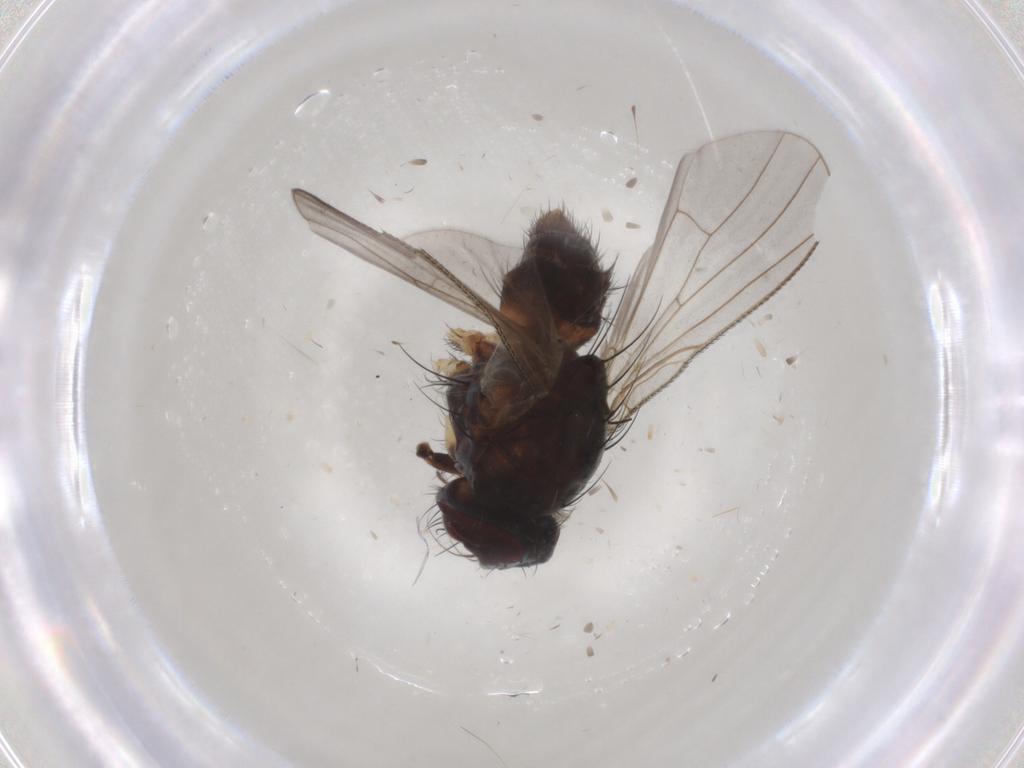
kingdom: Animalia
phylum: Arthropoda
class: Insecta
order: Diptera
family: Muscidae
